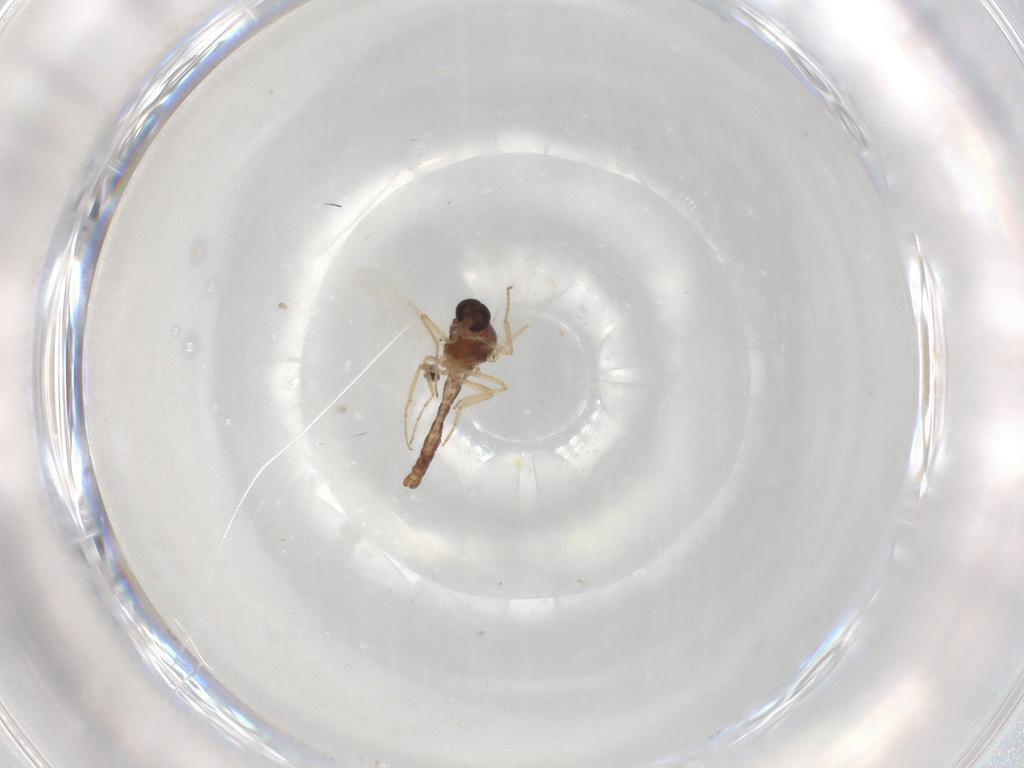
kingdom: Animalia
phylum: Arthropoda
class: Insecta
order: Diptera
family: Ceratopogonidae
